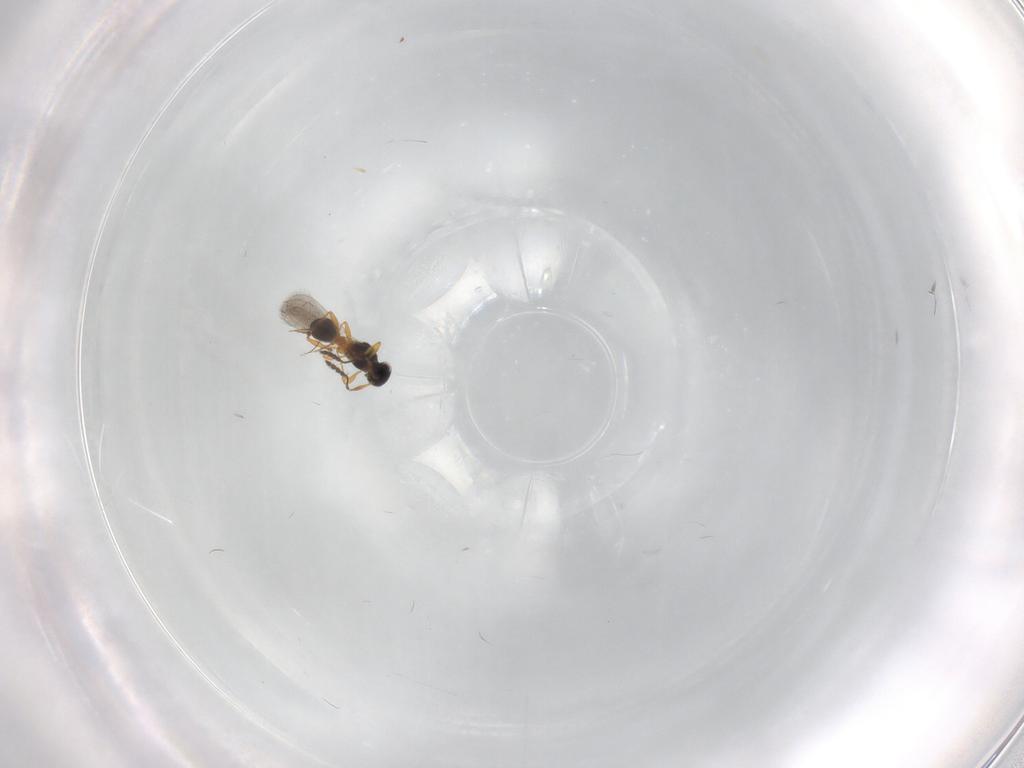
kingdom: Animalia
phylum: Arthropoda
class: Insecta
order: Hymenoptera
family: Platygastridae
